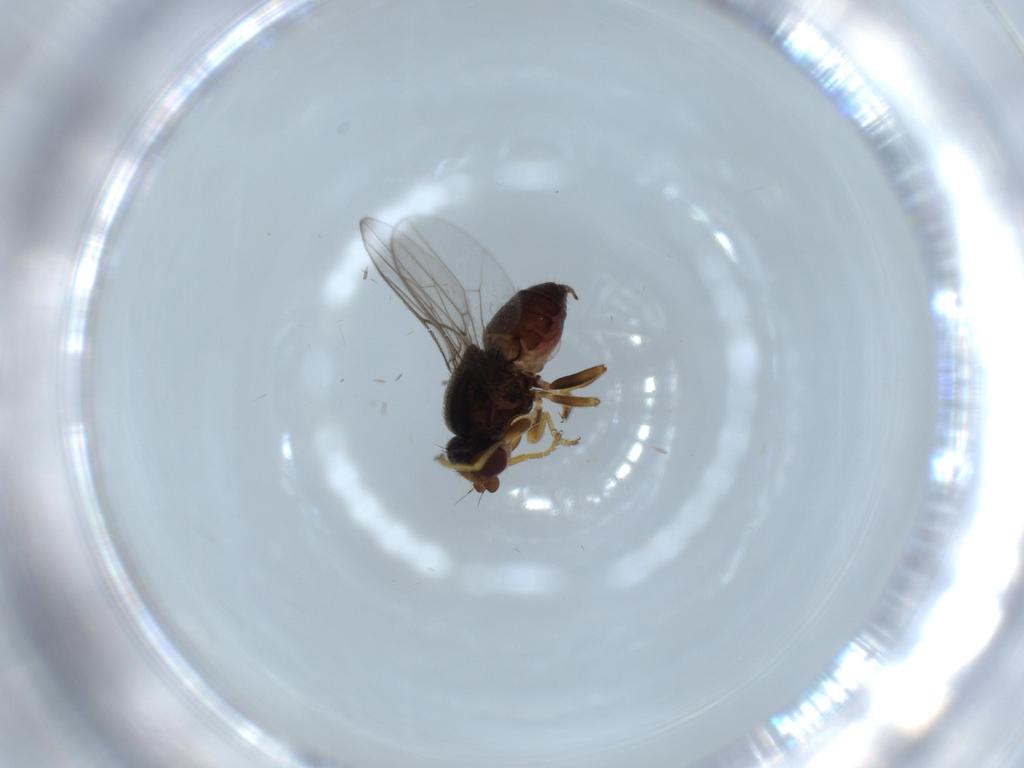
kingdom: Animalia
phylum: Arthropoda
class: Insecta
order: Diptera
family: Chloropidae
